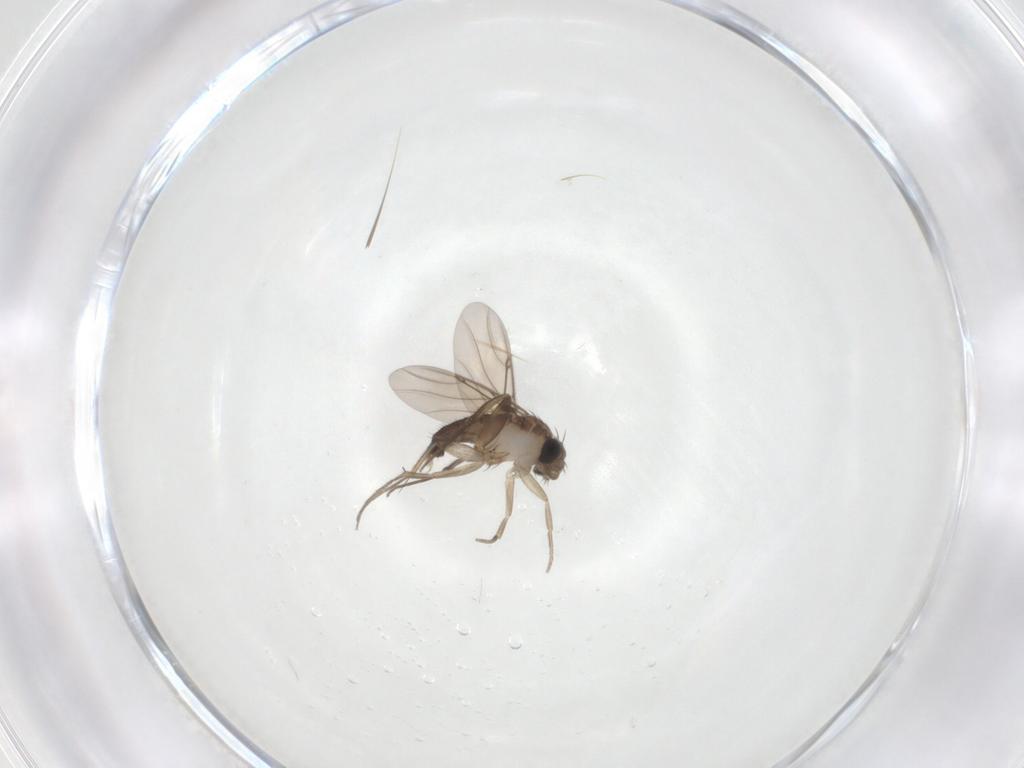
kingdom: Animalia
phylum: Arthropoda
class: Insecta
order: Diptera
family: Phoridae
